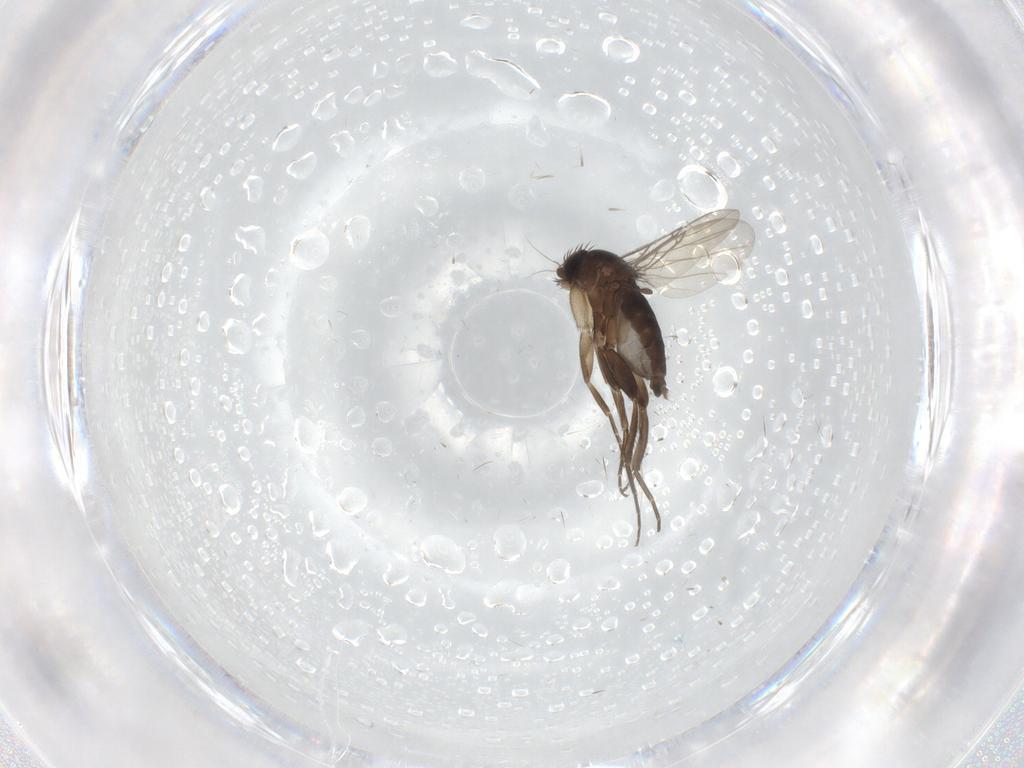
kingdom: Animalia
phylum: Arthropoda
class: Insecta
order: Diptera
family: Phoridae
